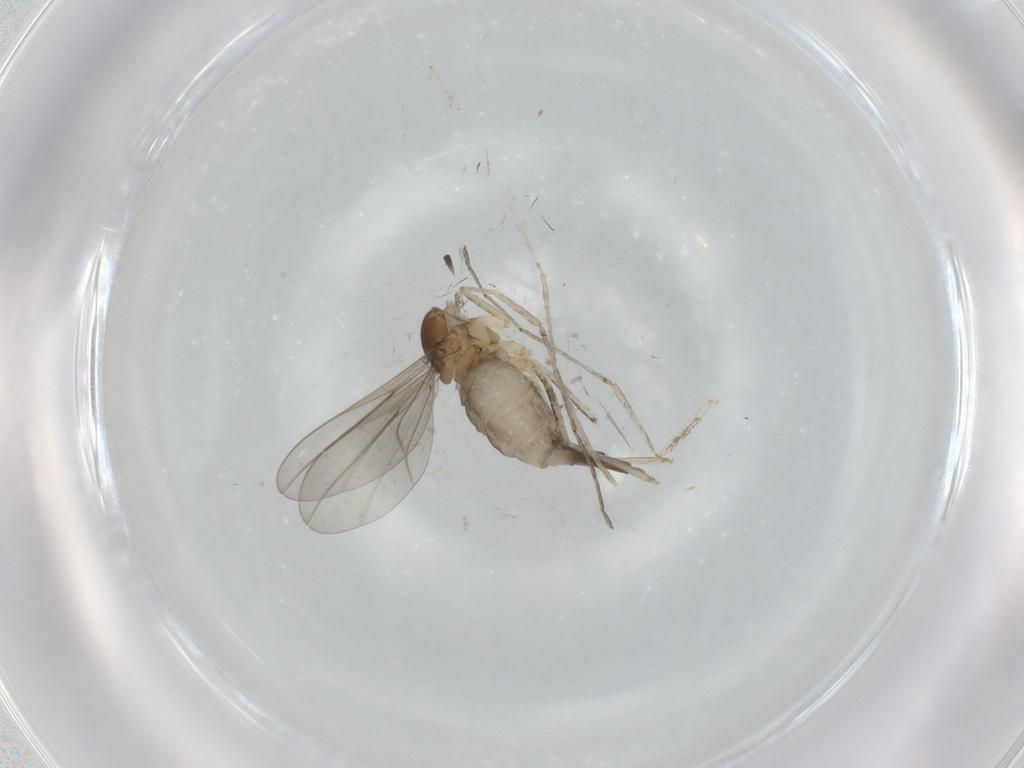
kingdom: Animalia
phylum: Arthropoda
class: Insecta
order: Diptera
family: Cecidomyiidae
